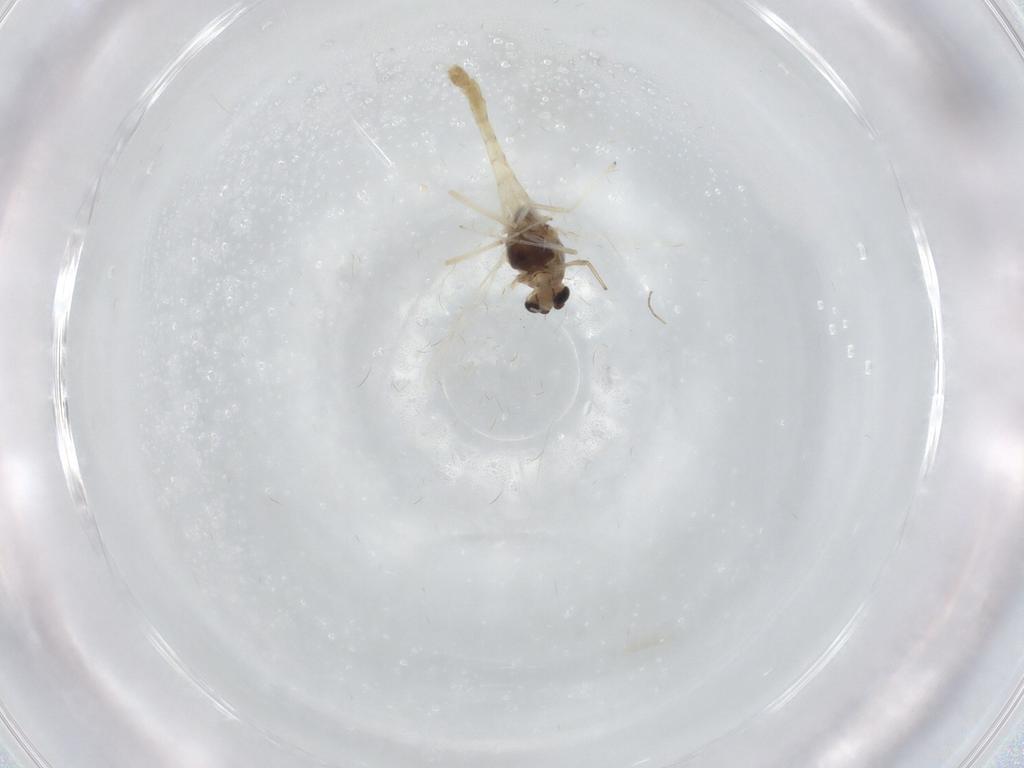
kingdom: Animalia
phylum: Arthropoda
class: Insecta
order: Diptera
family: Chironomidae
